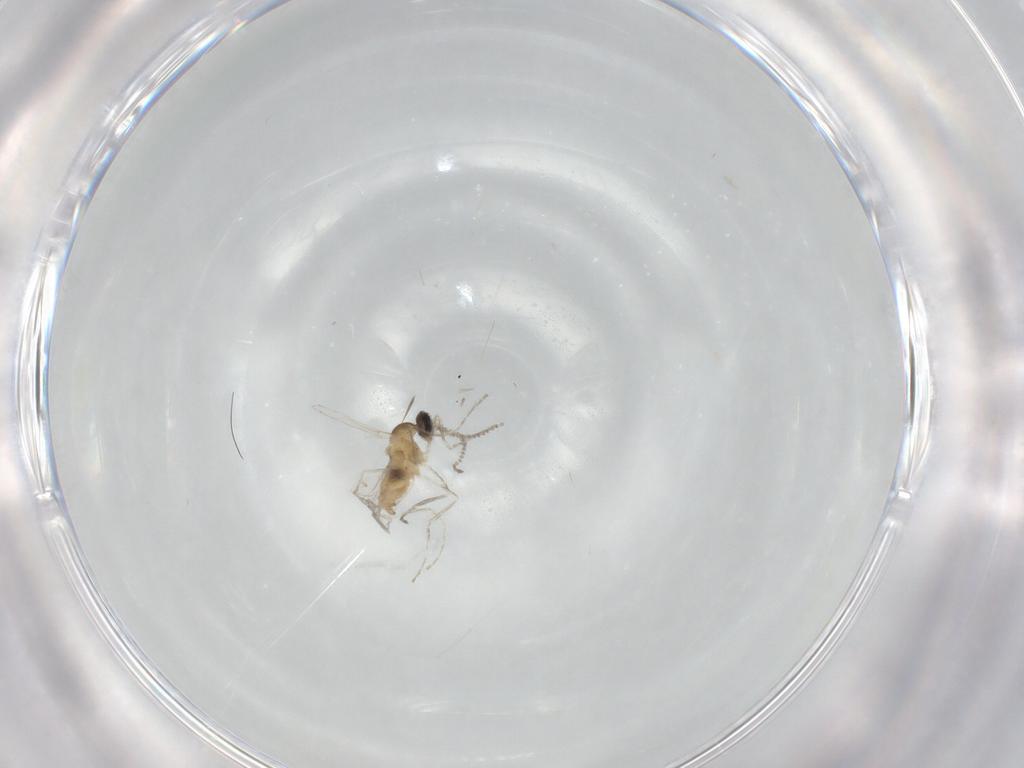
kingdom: Animalia
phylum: Arthropoda
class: Insecta
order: Diptera
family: Cecidomyiidae
